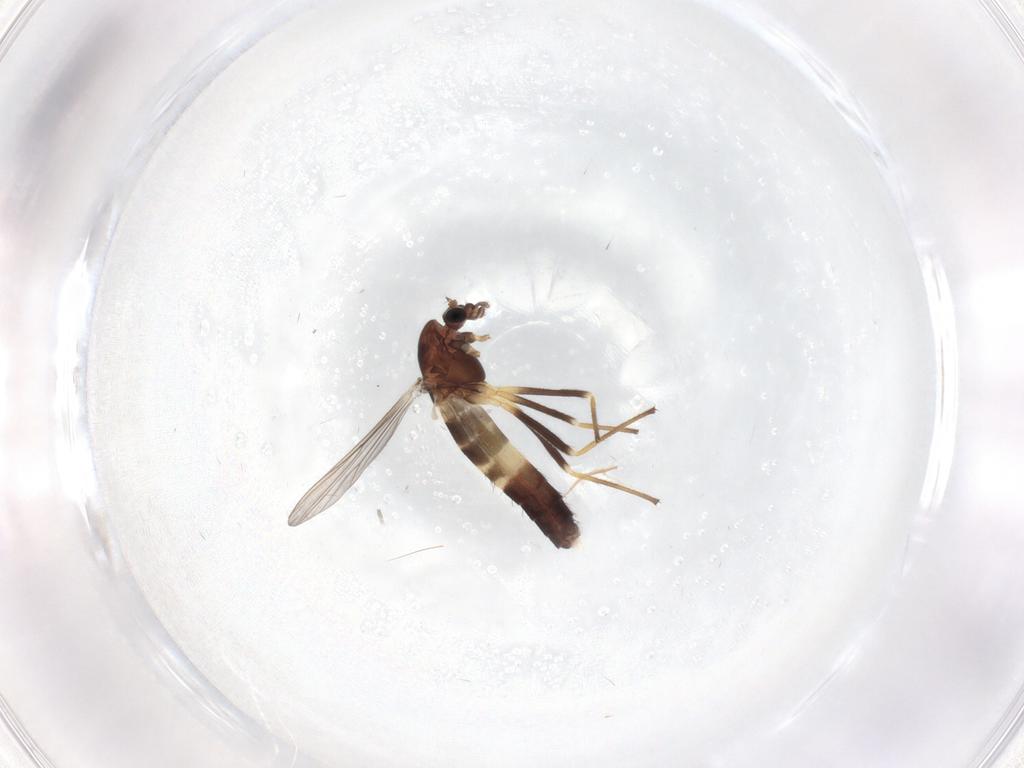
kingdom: Animalia
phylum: Arthropoda
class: Insecta
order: Diptera
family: Chironomidae
